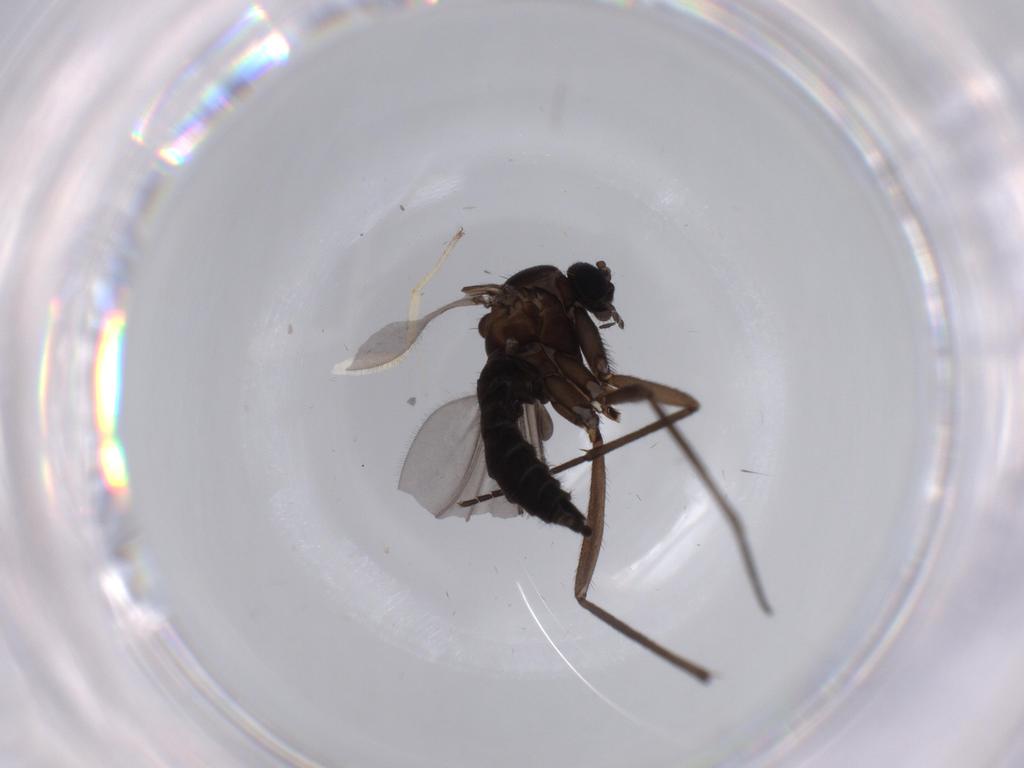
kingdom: Animalia
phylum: Arthropoda
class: Insecta
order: Diptera
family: Sciaridae
